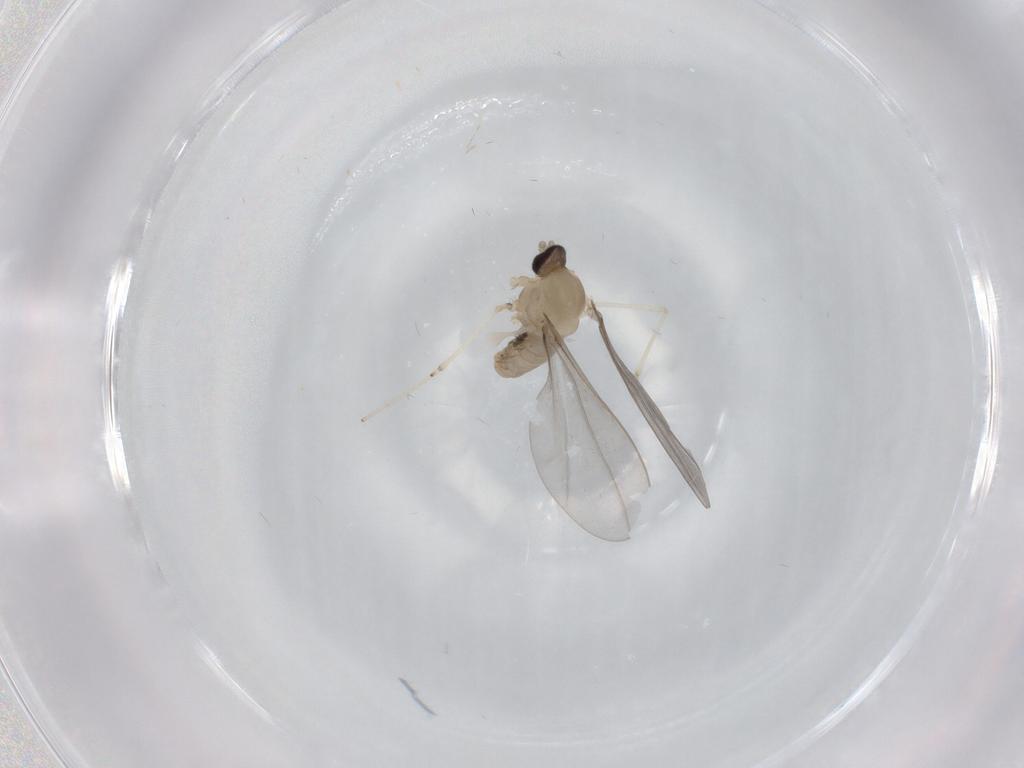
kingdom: Animalia
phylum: Arthropoda
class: Insecta
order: Diptera
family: Cecidomyiidae
